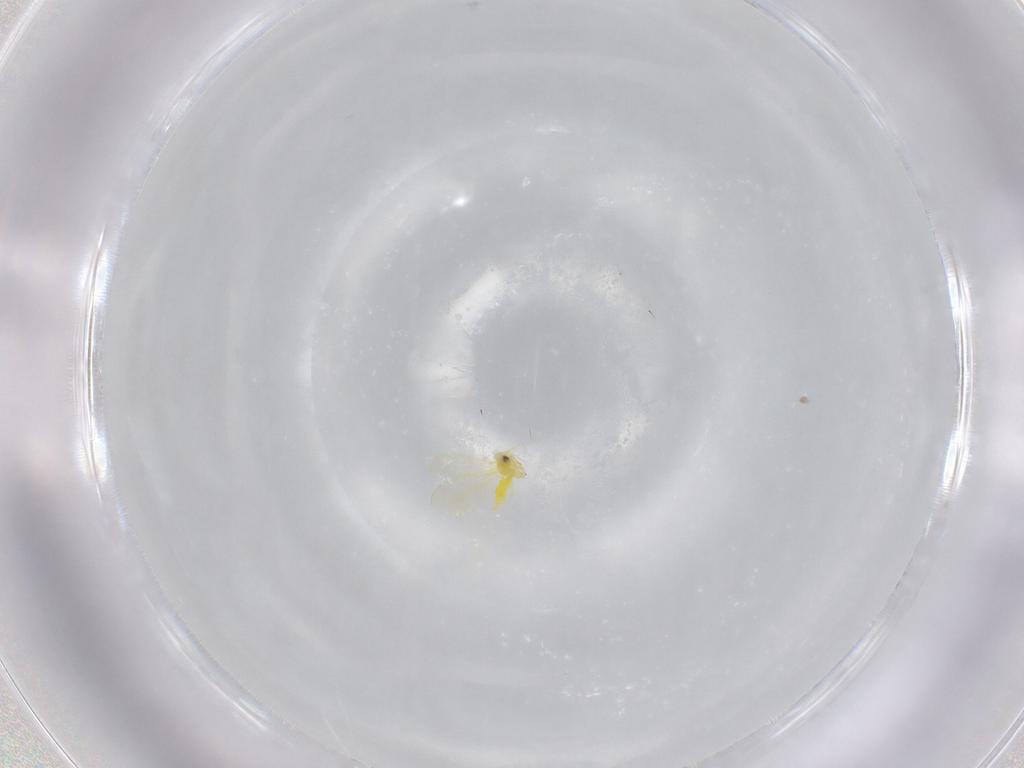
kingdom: Animalia
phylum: Arthropoda
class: Insecta
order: Hemiptera
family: Aleyrodidae
